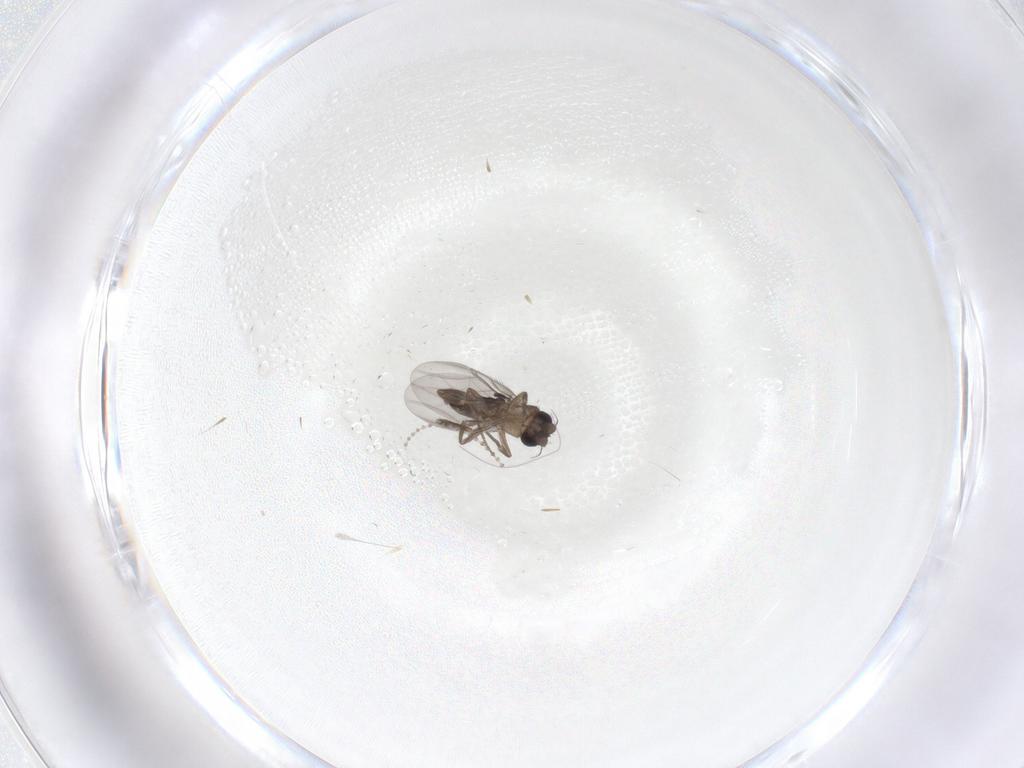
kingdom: Animalia
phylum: Arthropoda
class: Insecta
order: Diptera
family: Phoridae
